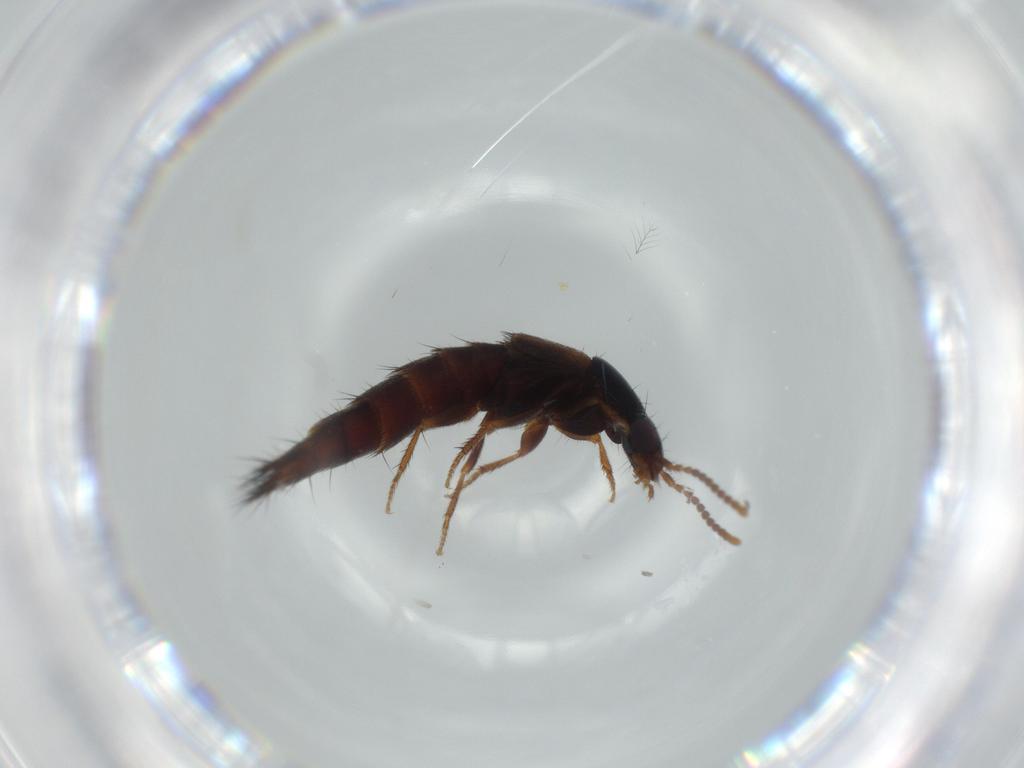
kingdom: Animalia
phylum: Arthropoda
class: Insecta
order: Coleoptera
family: Staphylinidae
